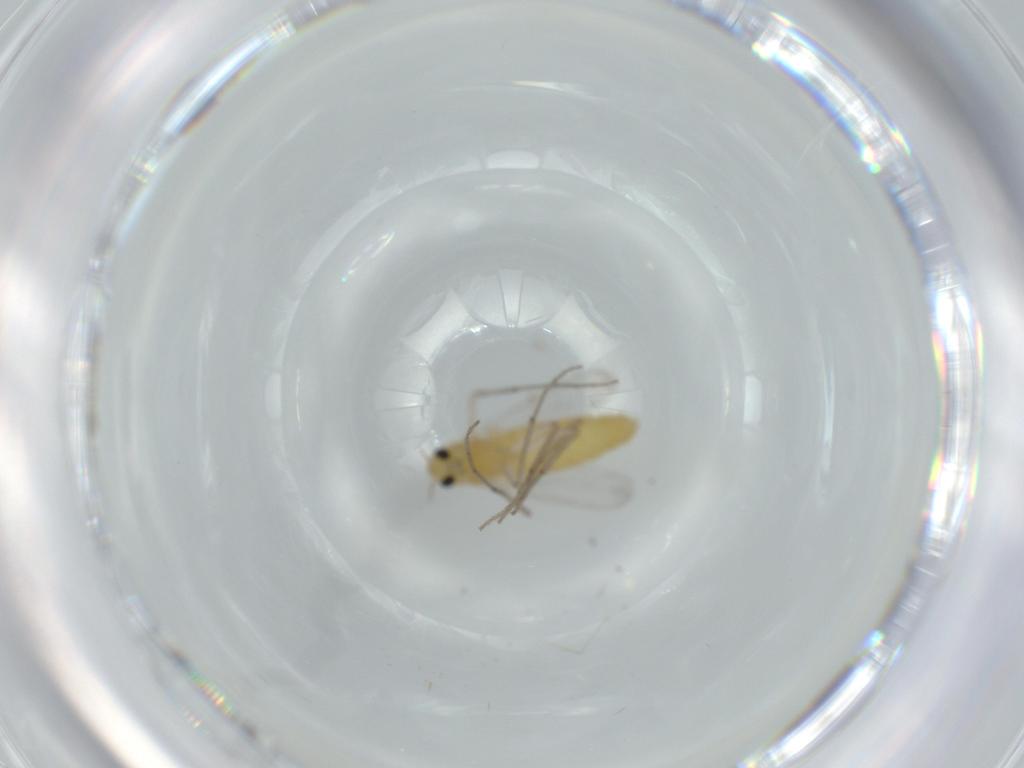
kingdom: Animalia
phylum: Arthropoda
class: Insecta
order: Diptera
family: Chironomidae
